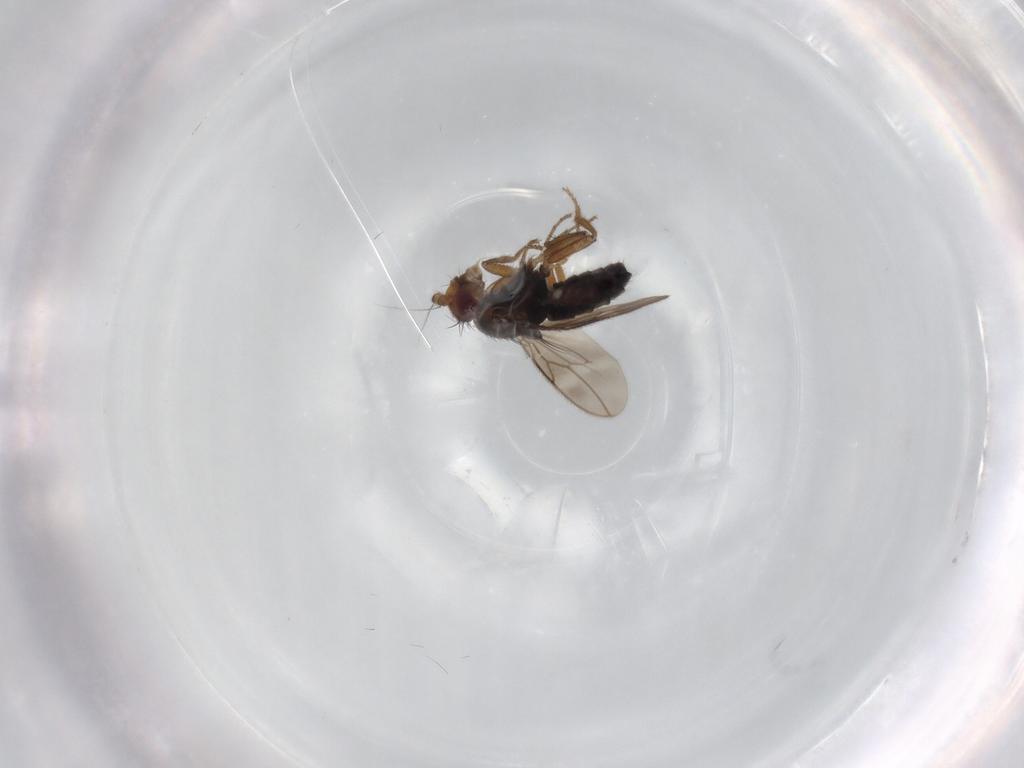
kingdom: Animalia
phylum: Arthropoda
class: Insecta
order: Diptera
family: Sphaeroceridae
